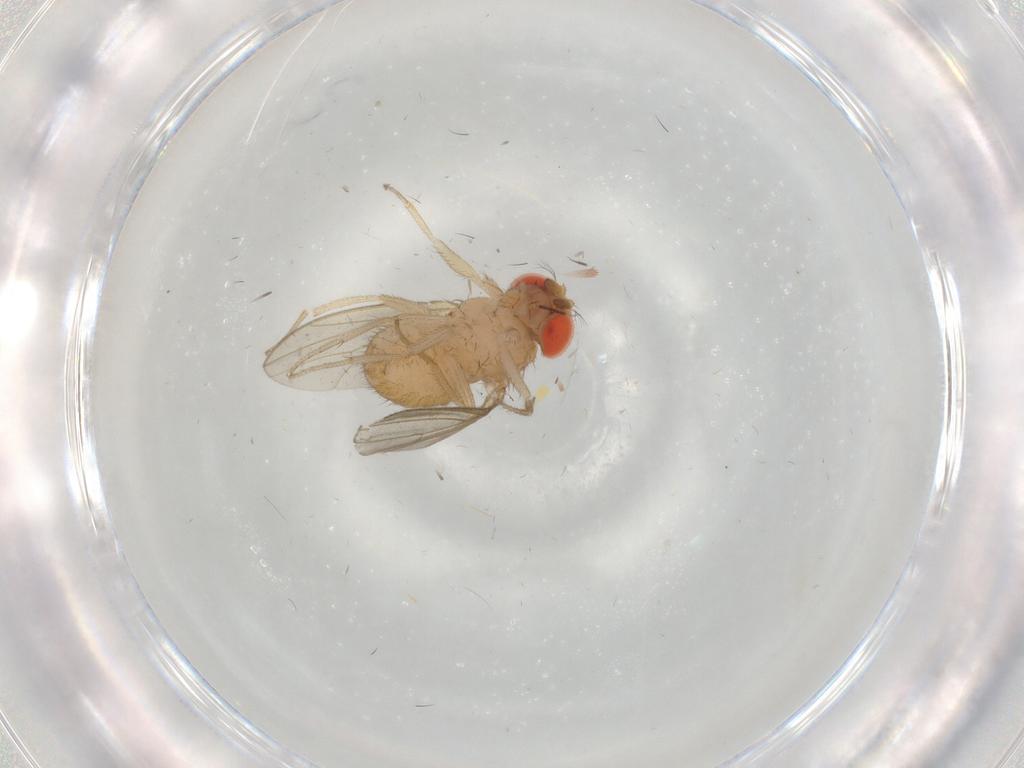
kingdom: Animalia
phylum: Arthropoda
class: Insecta
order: Diptera
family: Drosophilidae
